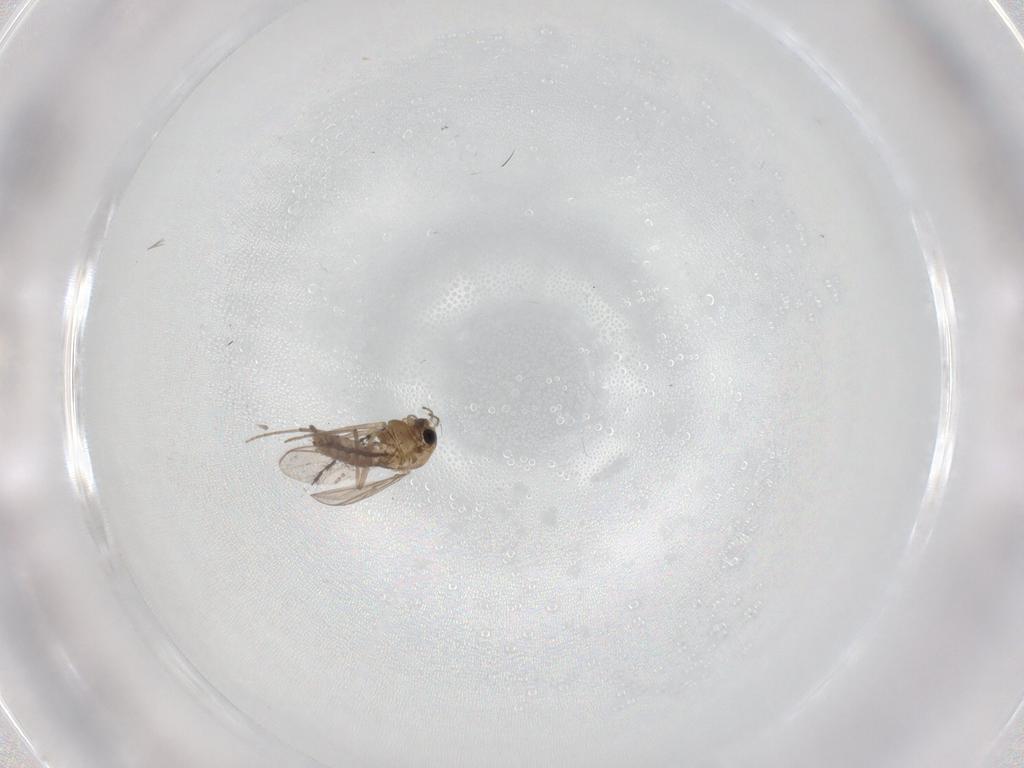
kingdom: Animalia
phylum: Arthropoda
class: Insecta
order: Diptera
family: Chironomidae
